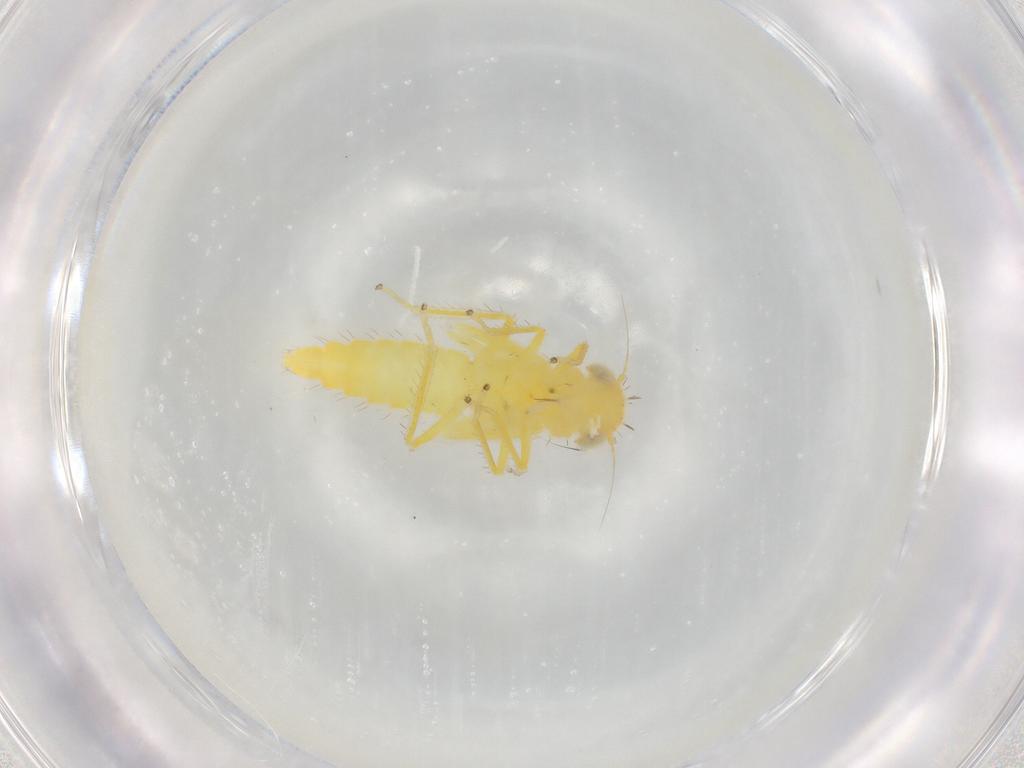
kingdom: Animalia
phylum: Arthropoda
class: Insecta
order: Hemiptera
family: Cicadellidae
